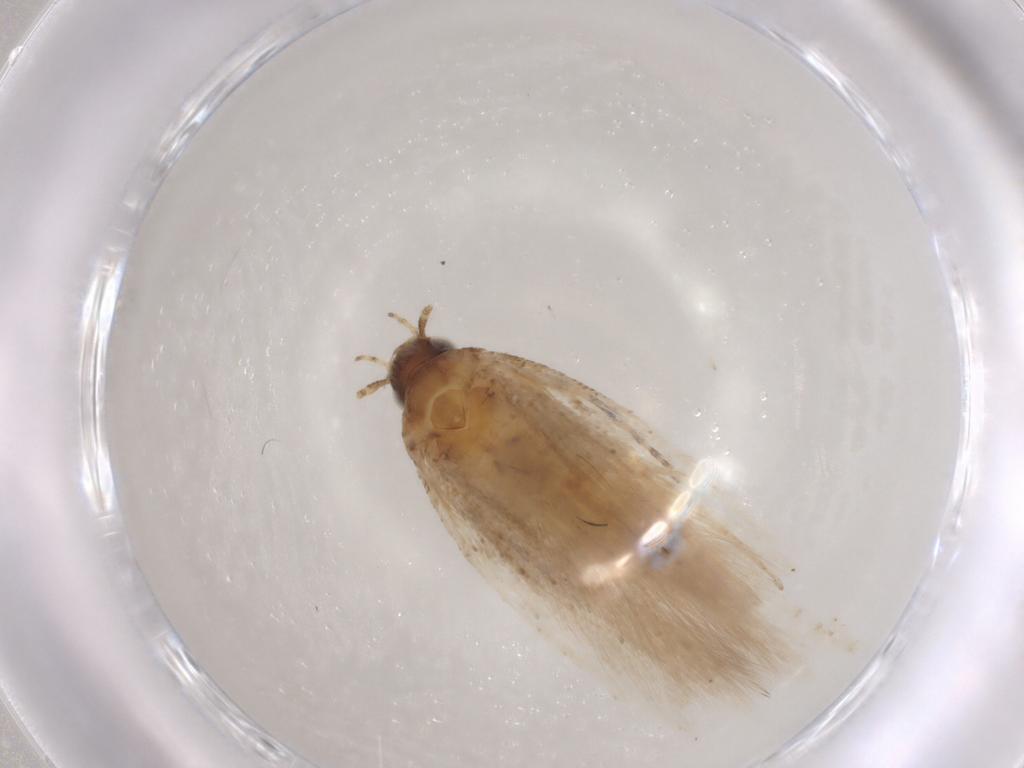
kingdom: Animalia
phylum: Arthropoda
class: Insecta
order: Lepidoptera
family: Gelechiidae
